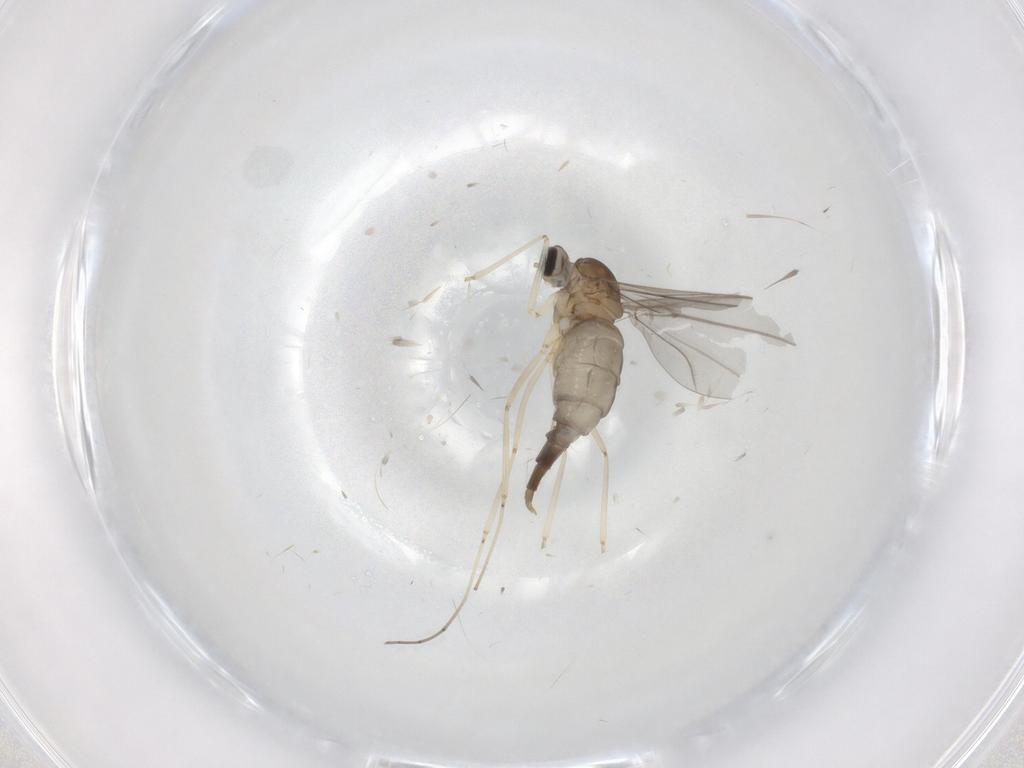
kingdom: Animalia
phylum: Arthropoda
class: Insecta
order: Diptera
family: Cecidomyiidae
